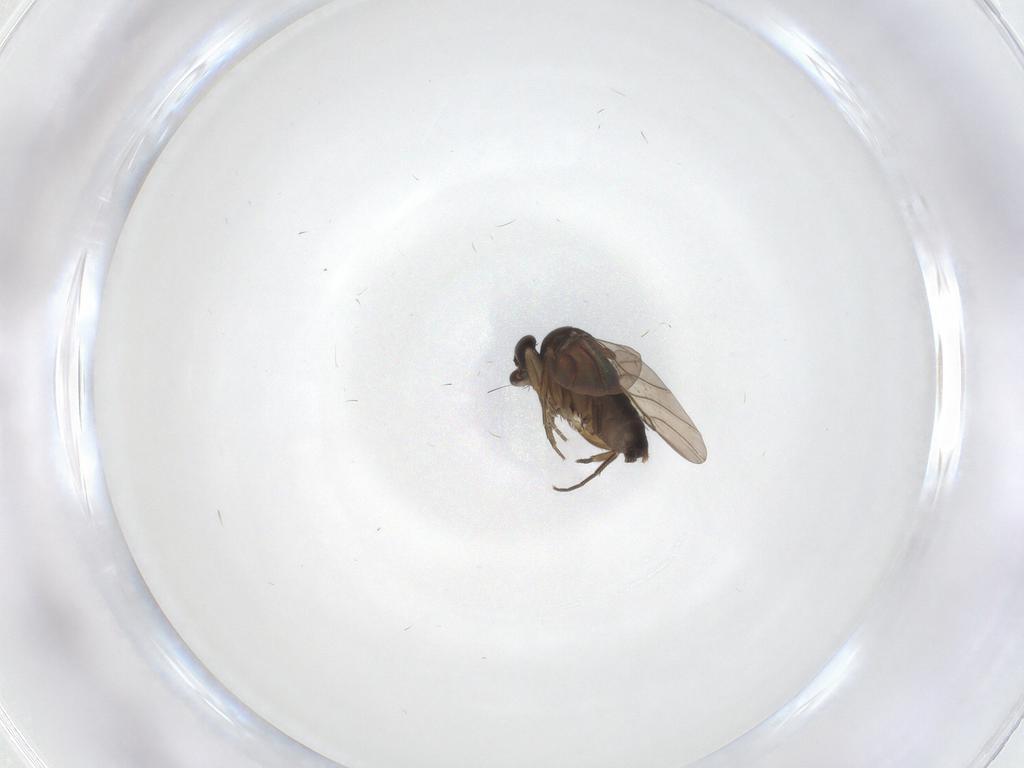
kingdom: Animalia
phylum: Arthropoda
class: Insecta
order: Diptera
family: Phoridae
